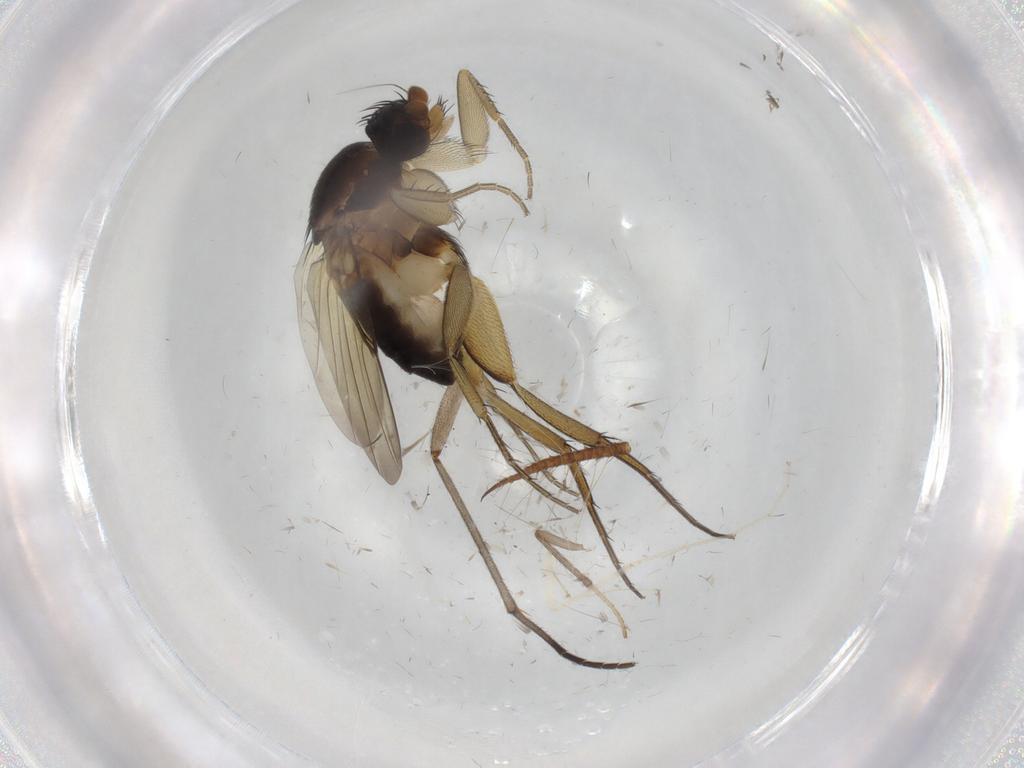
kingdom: Animalia
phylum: Arthropoda
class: Insecta
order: Diptera
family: Phoridae
